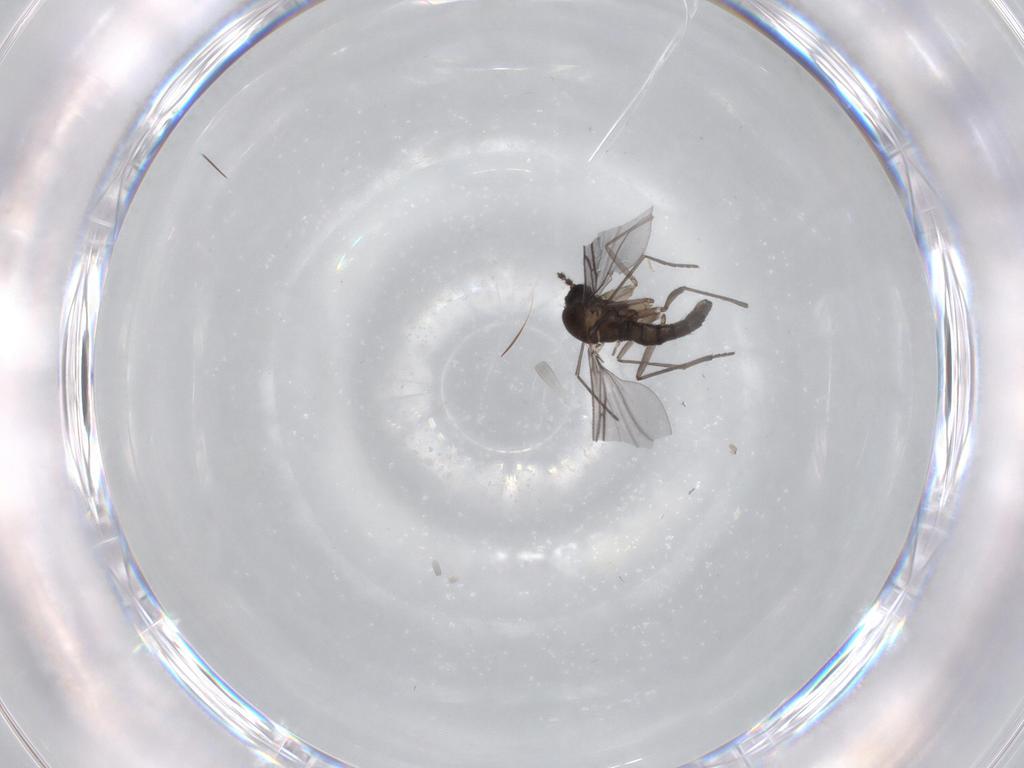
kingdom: Animalia
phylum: Arthropoda
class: Insecta
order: Diptera
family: Sciaridae
